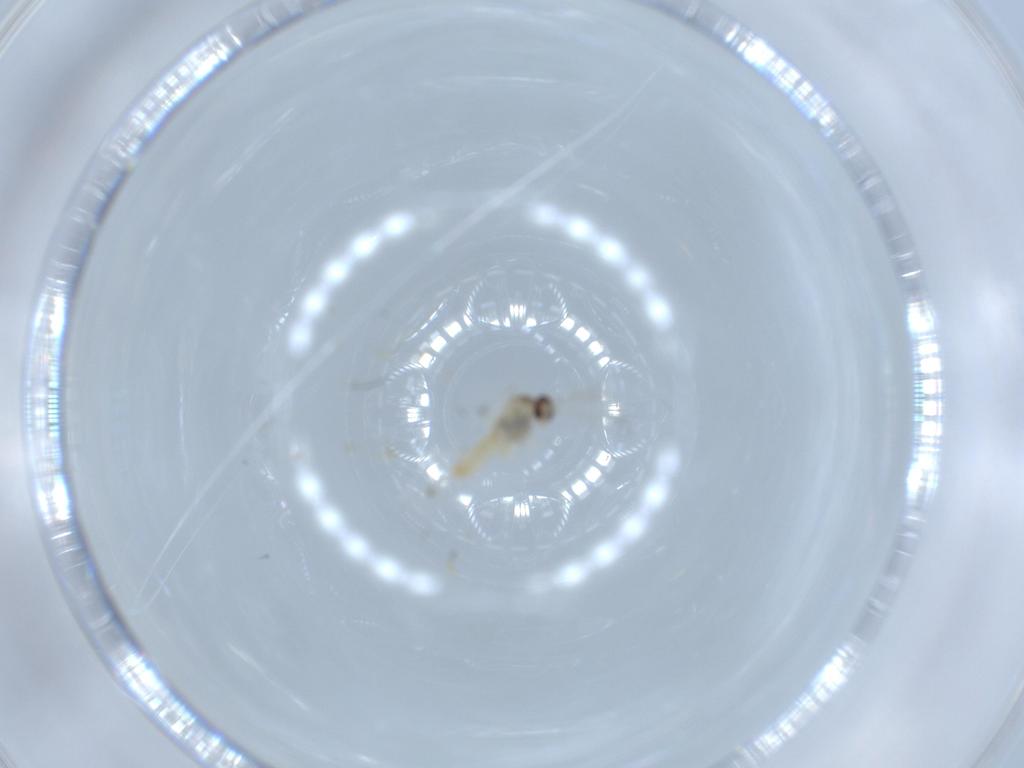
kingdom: Animalia
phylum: Arthropoda
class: Insecta
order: Diptera
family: Cecidomyiidae
